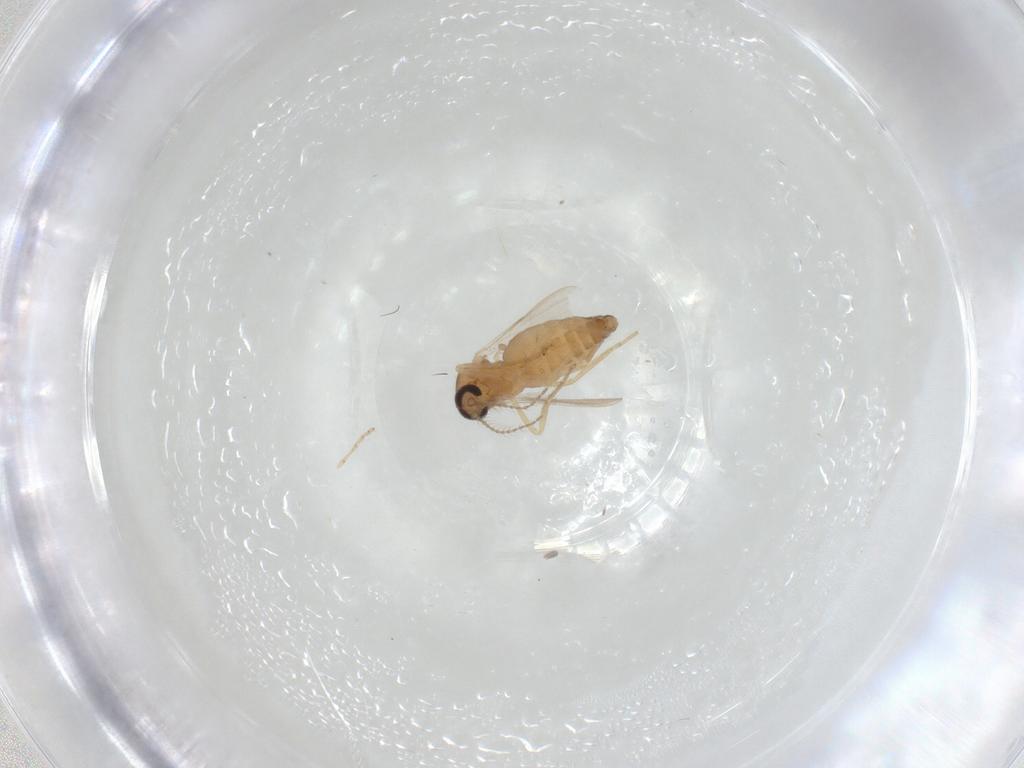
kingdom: Animalia
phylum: Arthropoda
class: Insecta
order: Diptera
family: Ceratopogonidae
